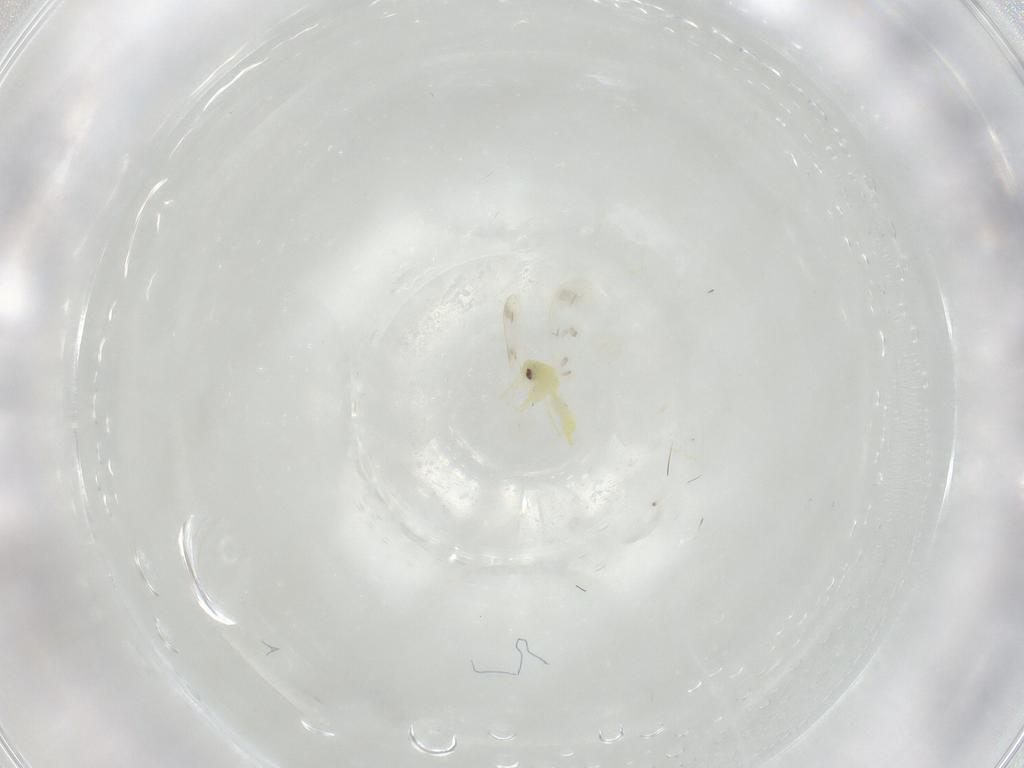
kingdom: Animalia
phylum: Arthropoda
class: Insecta
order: Hemiptera
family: Aleyrodidae
